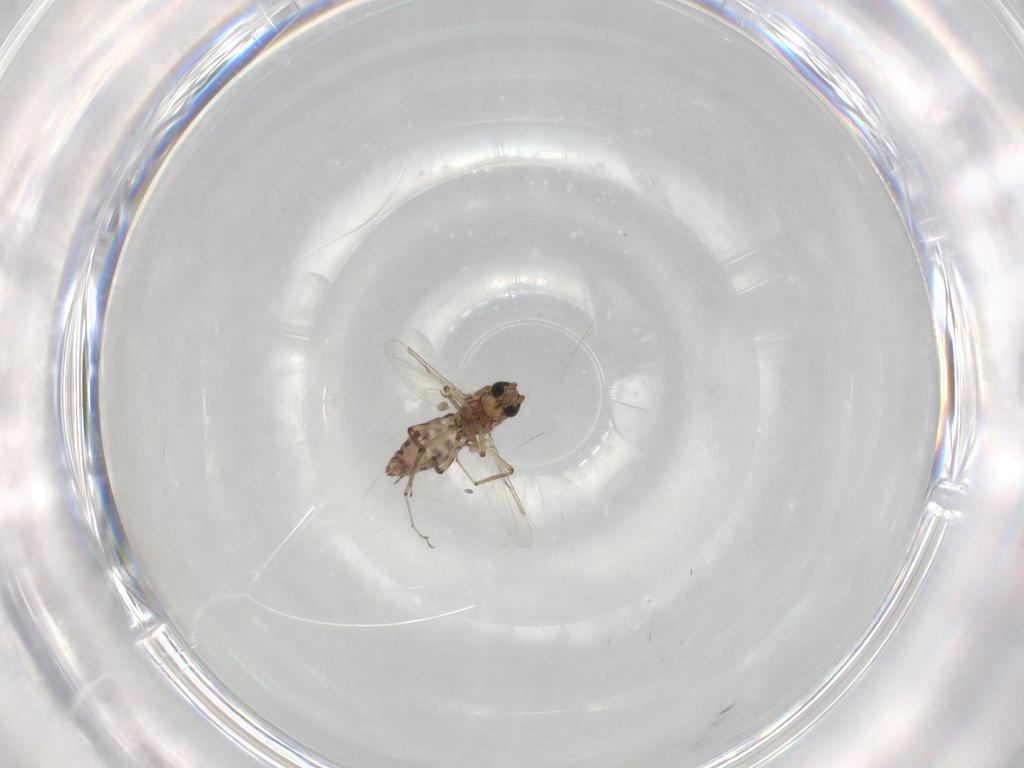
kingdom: Animalia
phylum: Arthropoda
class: Insecta
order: Diptera
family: Ceratopogonidae
